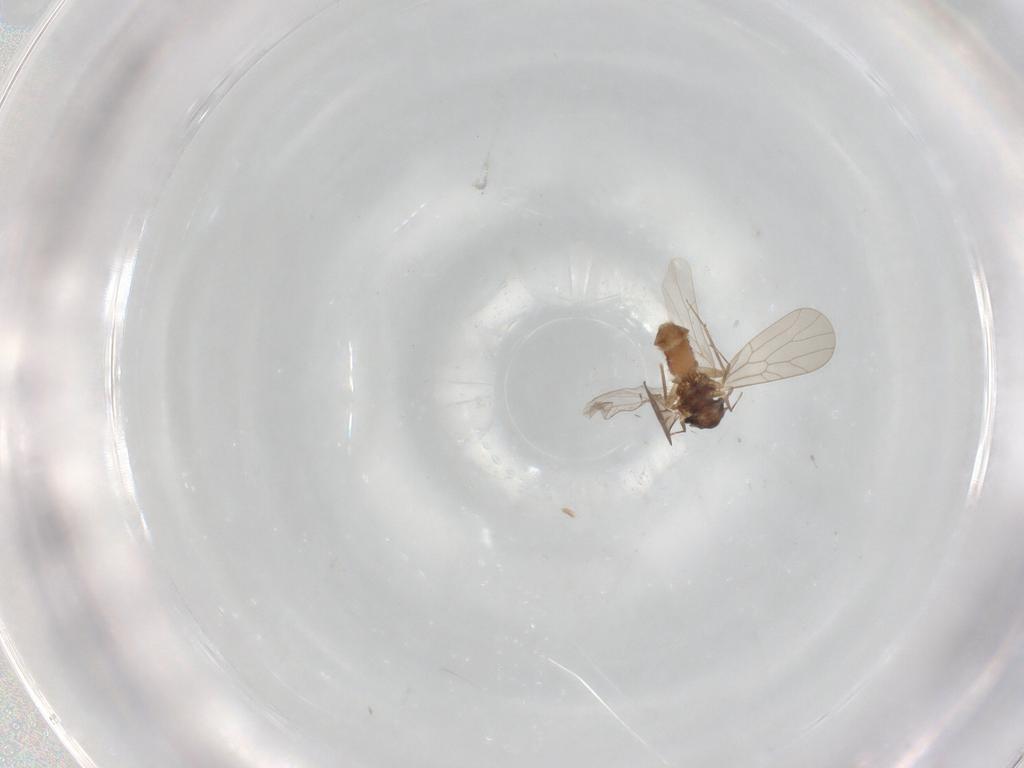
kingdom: Animalia
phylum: Arthropoda
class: Insecta
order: Psocodea
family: Lepidopsocidae
